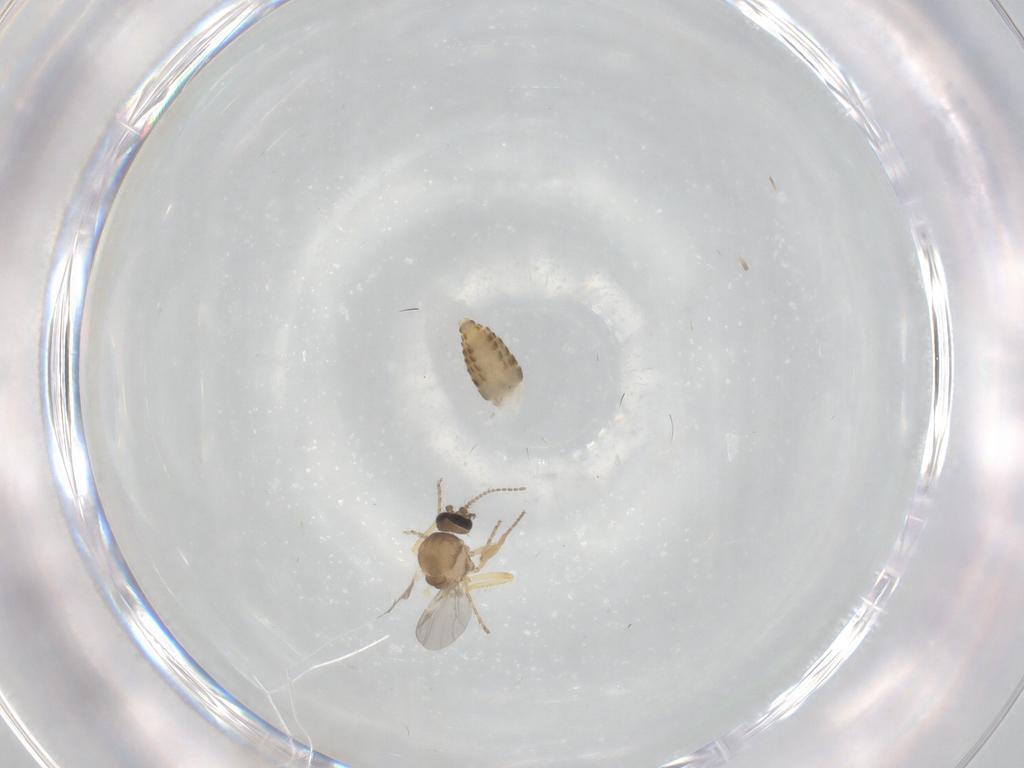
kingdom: Animalia
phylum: Arthropoda
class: Insecta
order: Diptera
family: Ceratopogonidae
